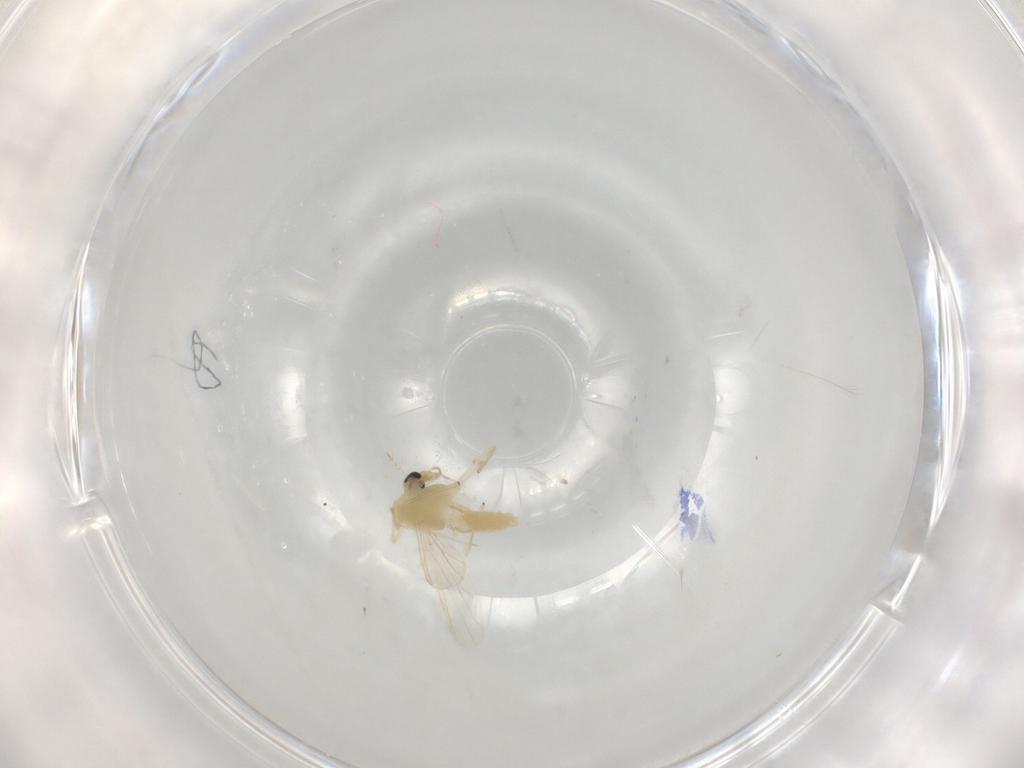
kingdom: Animalia
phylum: Arthropoda
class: Insecta
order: Diptera
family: Chironomidae
